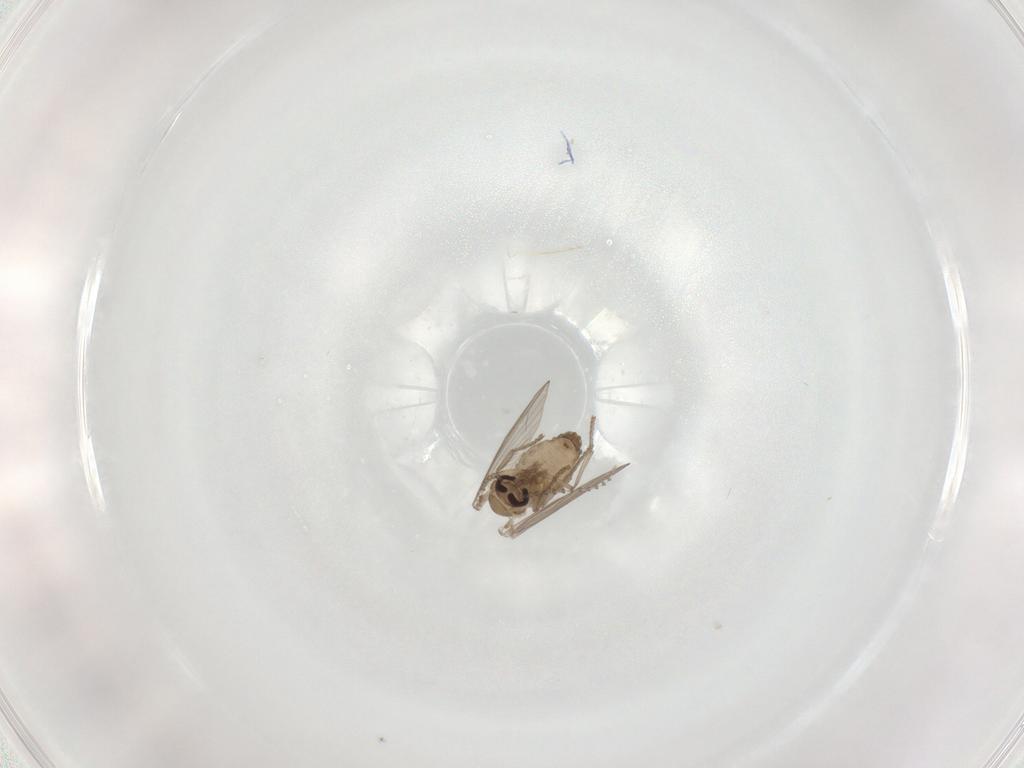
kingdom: Animalia
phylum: Arthropoda
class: Insecta
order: Diptera
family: Psychodidae
